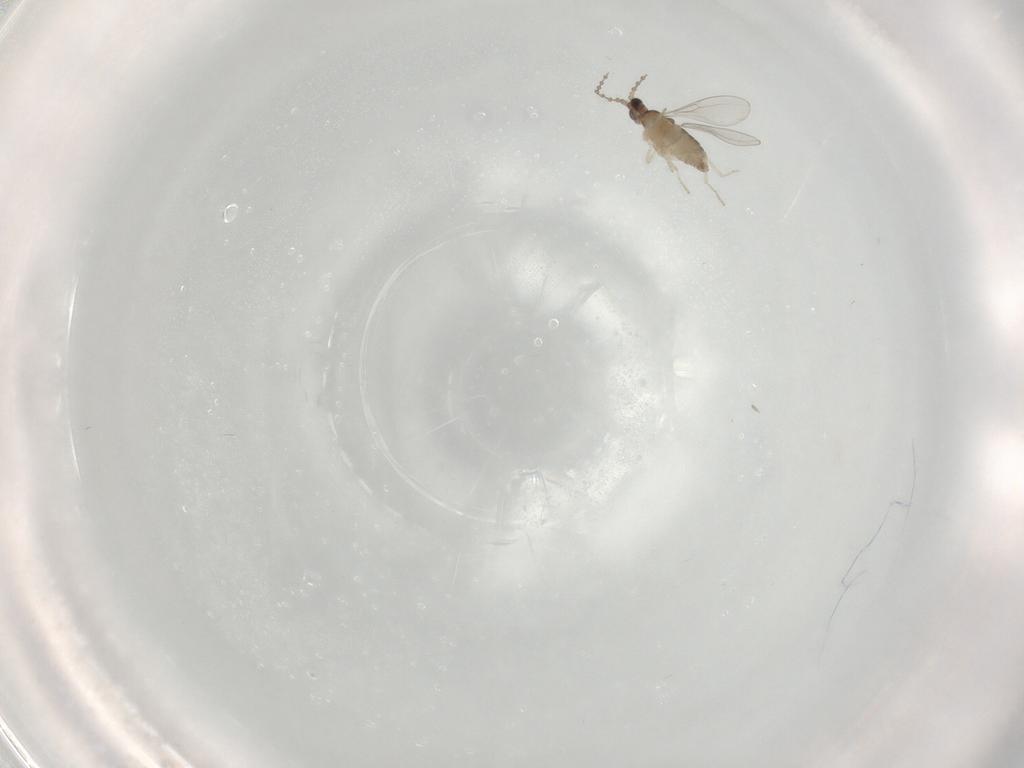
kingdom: Animalia
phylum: Arthropoda
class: Insecta
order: Diptera
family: Cecidomyiidae
